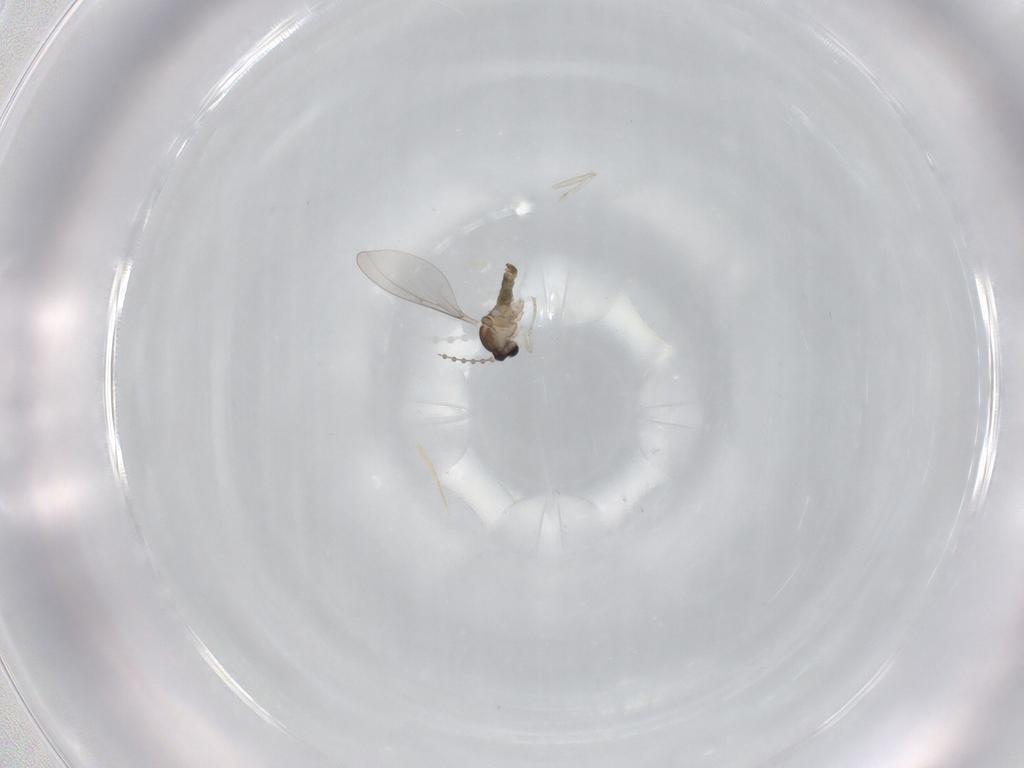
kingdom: Animalia
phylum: Arthropoda
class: Insecta
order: Diptera
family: Cecidomyiidae
